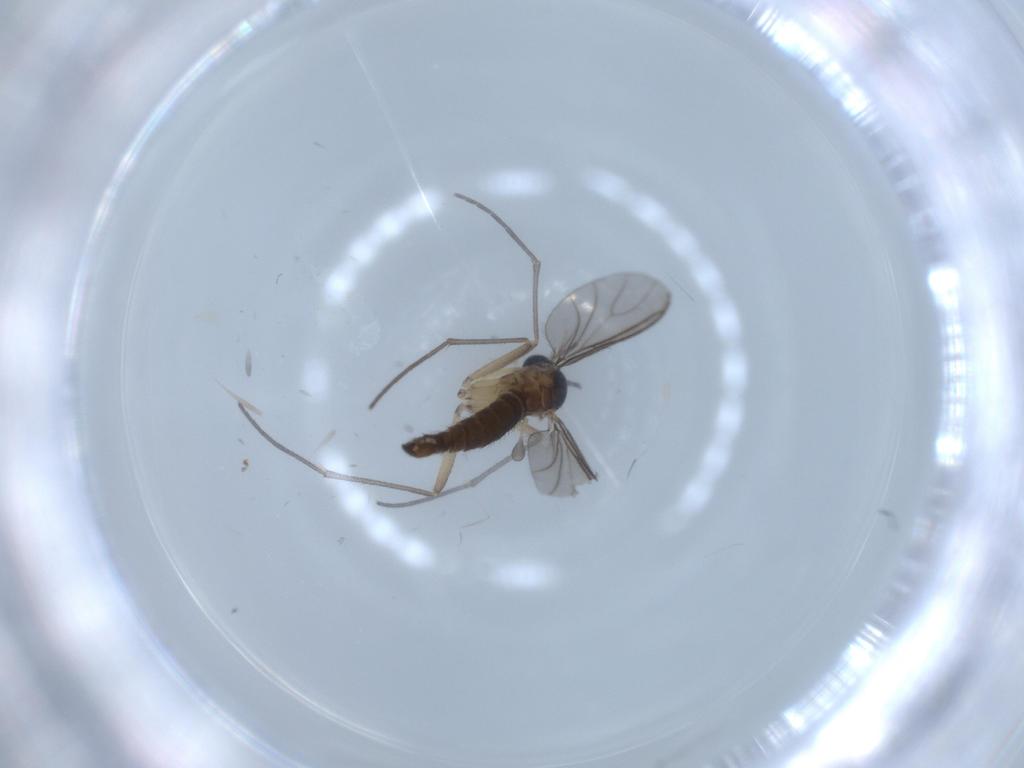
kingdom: Animalia
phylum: Arthropoda
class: Insecta
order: Diptera
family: Sciaridae
